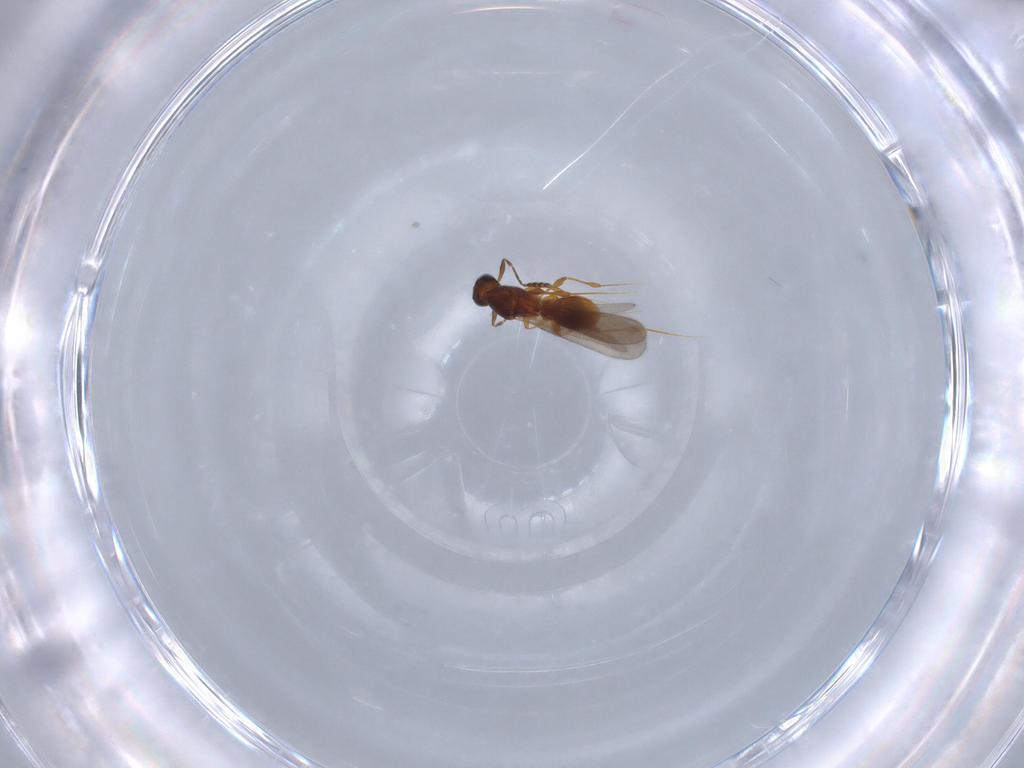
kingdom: Animalia
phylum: Arthropoda
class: Insecta
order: Hymenoptera
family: Platygastridae
